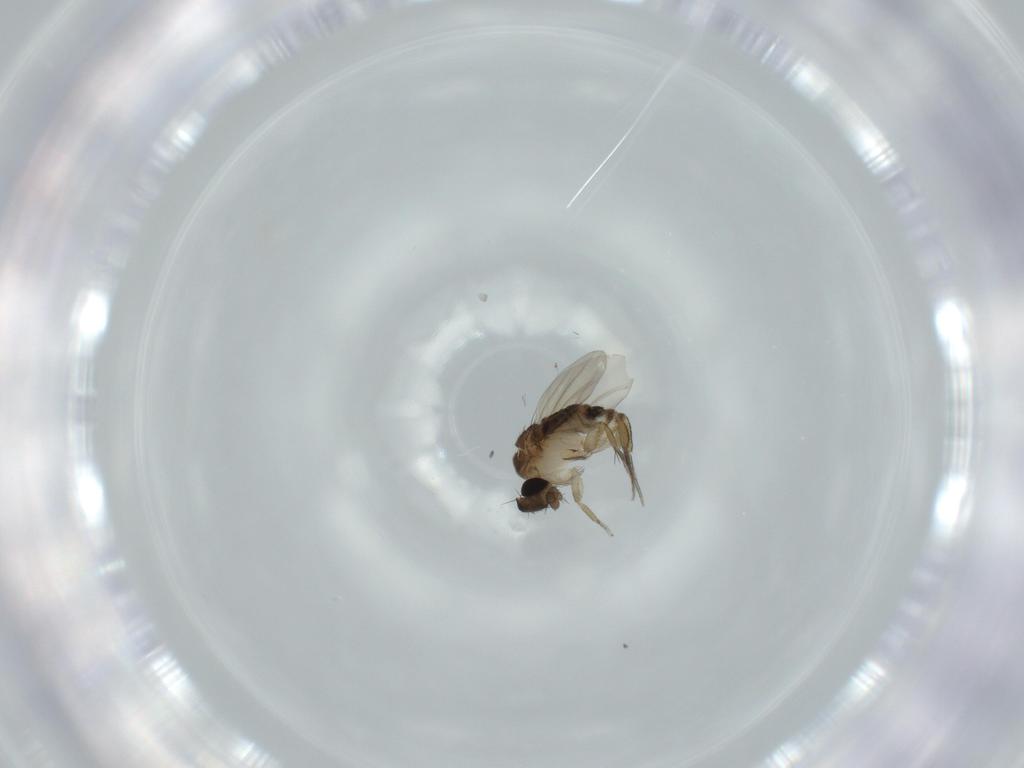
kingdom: Animalia
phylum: Arthropoda
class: Insecta
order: Diptera
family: Phoridae
